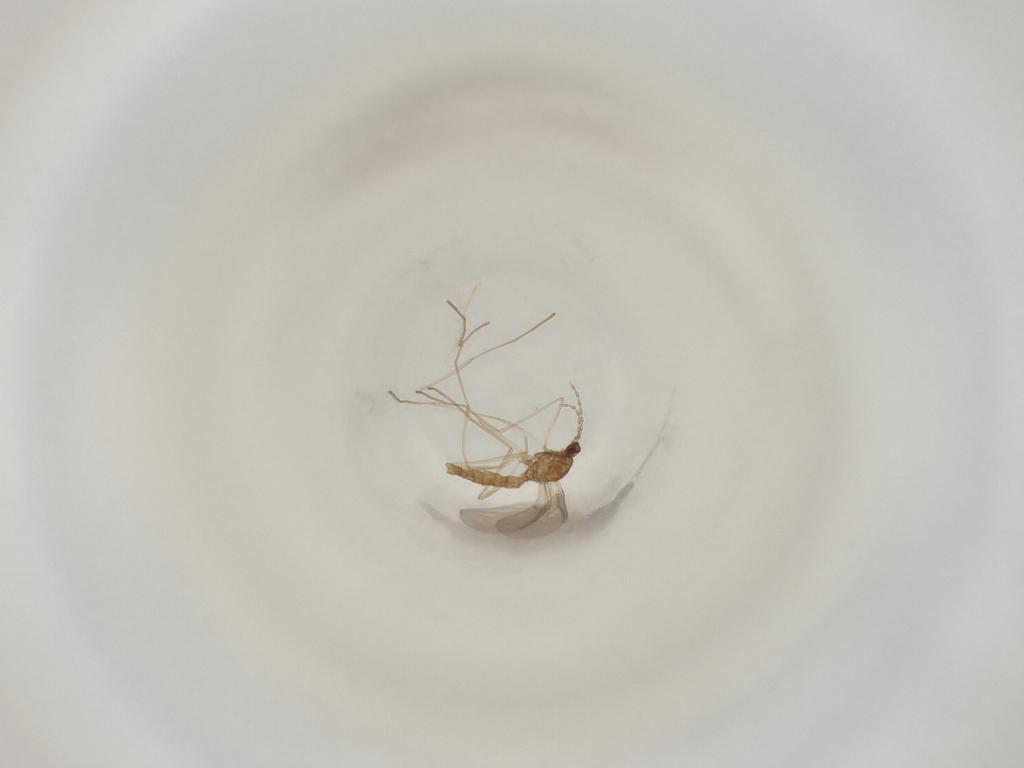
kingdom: Animalia
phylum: Arthropoda
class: Insecta
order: Diptera
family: Cecidomyiidae
